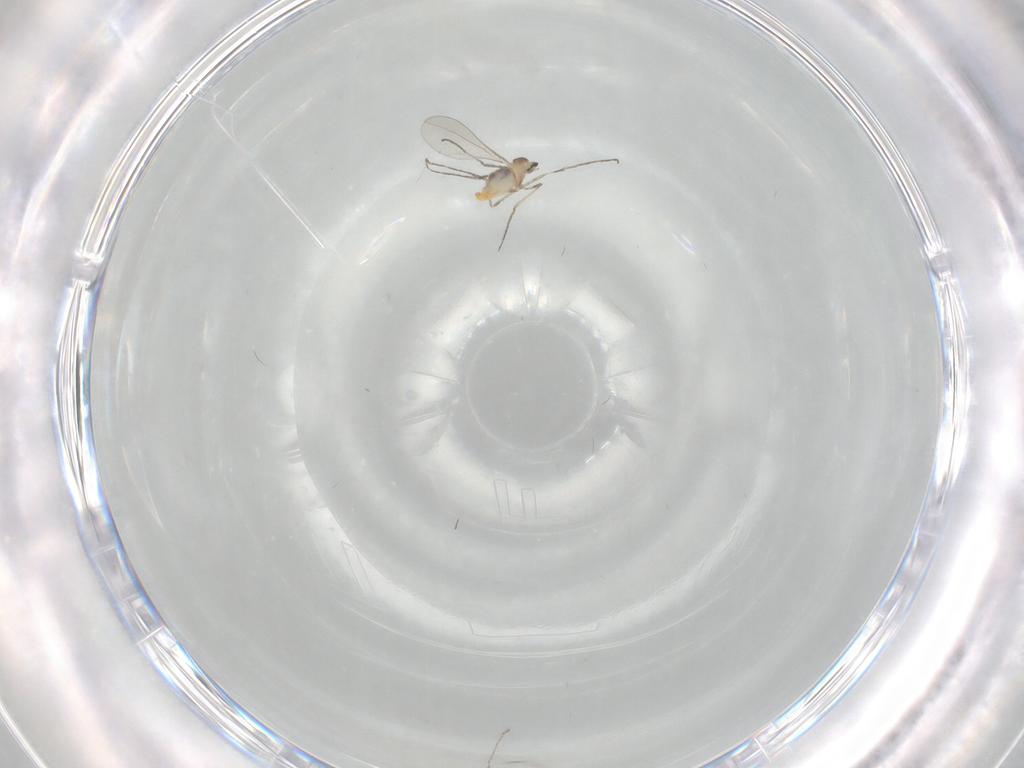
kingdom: Animalia
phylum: Arthropoda
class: Insecta
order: Diptera
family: Cecidomyiidae
